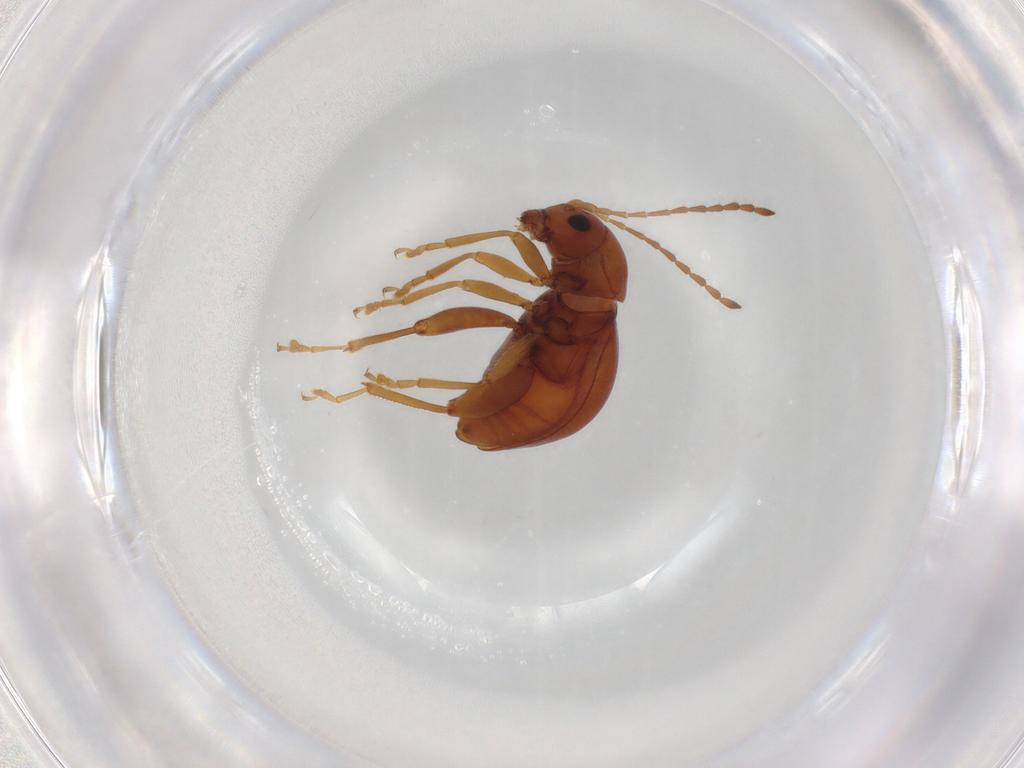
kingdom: Animalia
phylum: Arthropoda
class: Insecta
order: Coleoptera
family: Chrysomelidae
